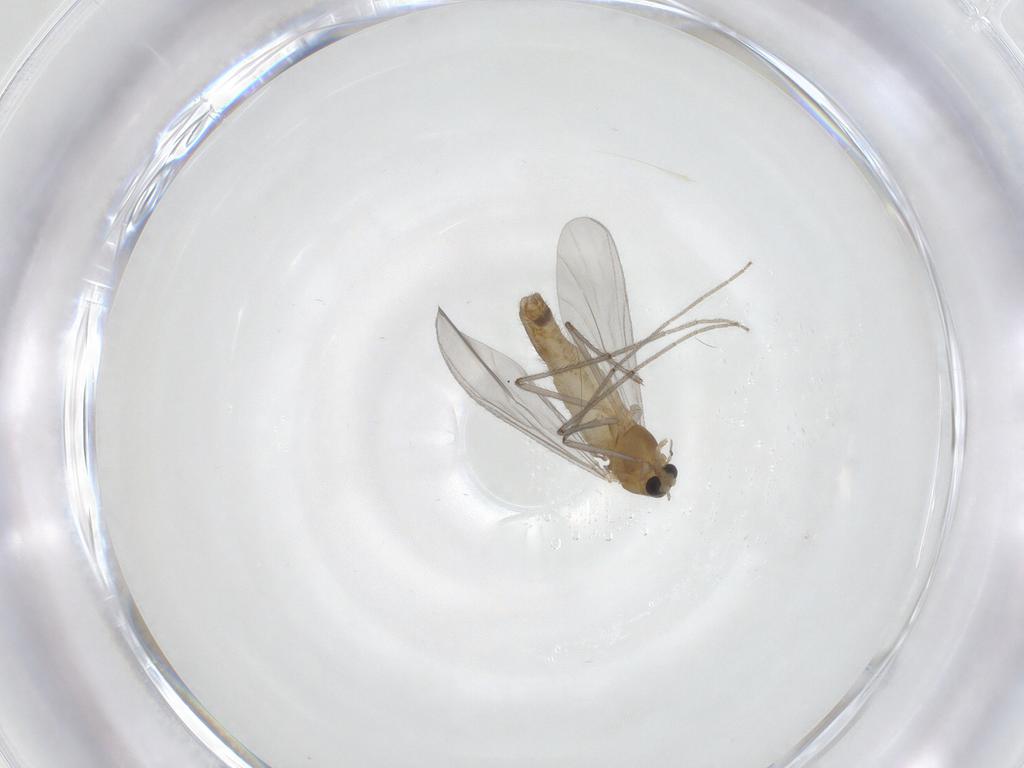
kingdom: Animalia
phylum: Arthropoda
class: Insecta
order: Diptera
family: Chironomidae
